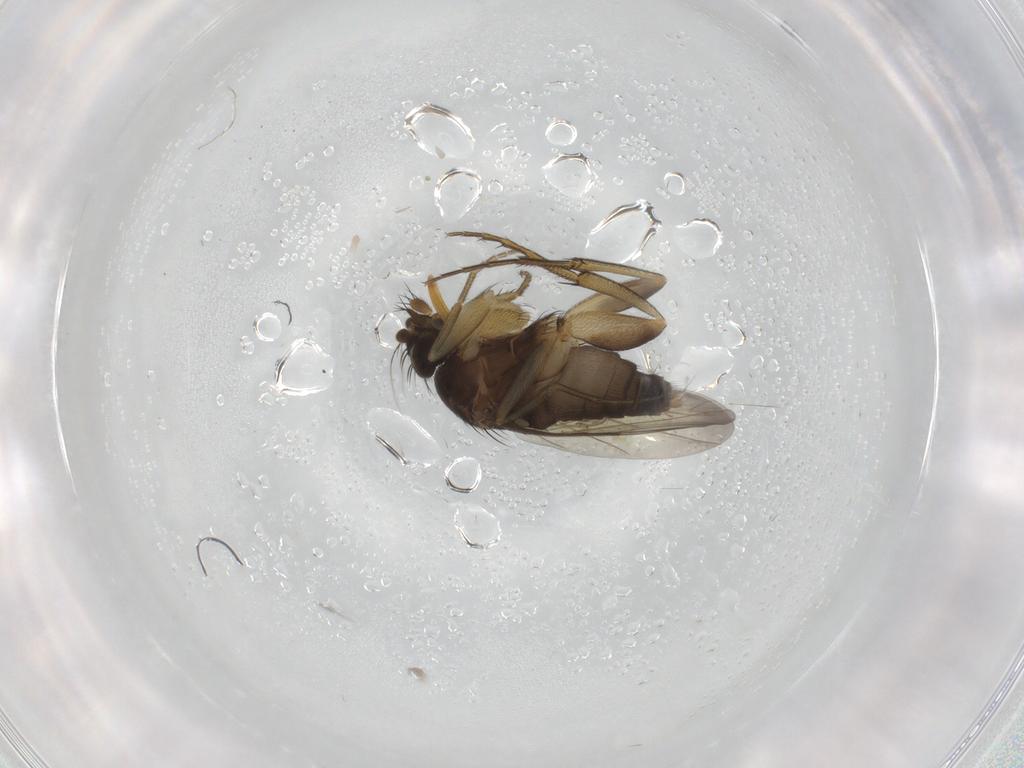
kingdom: Animalia
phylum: Arthropoda
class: Insecta
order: Diptera
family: Phoridae
